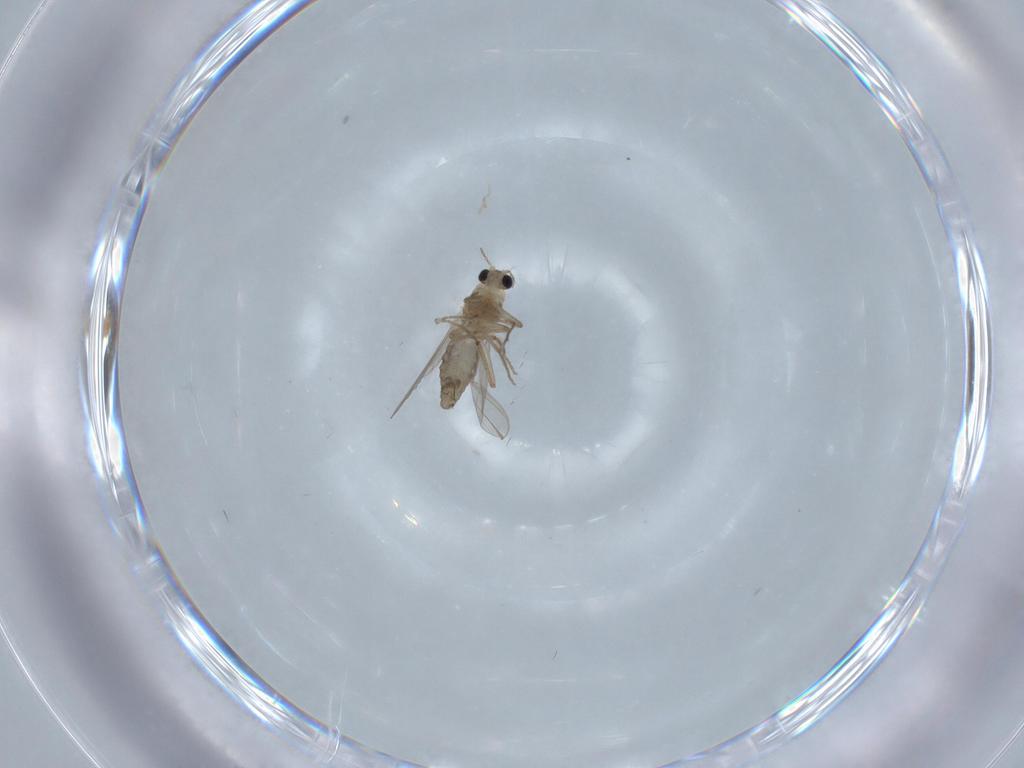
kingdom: Animalia
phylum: Arthropoda
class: Insecta
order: Diptera
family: Chironomidae
